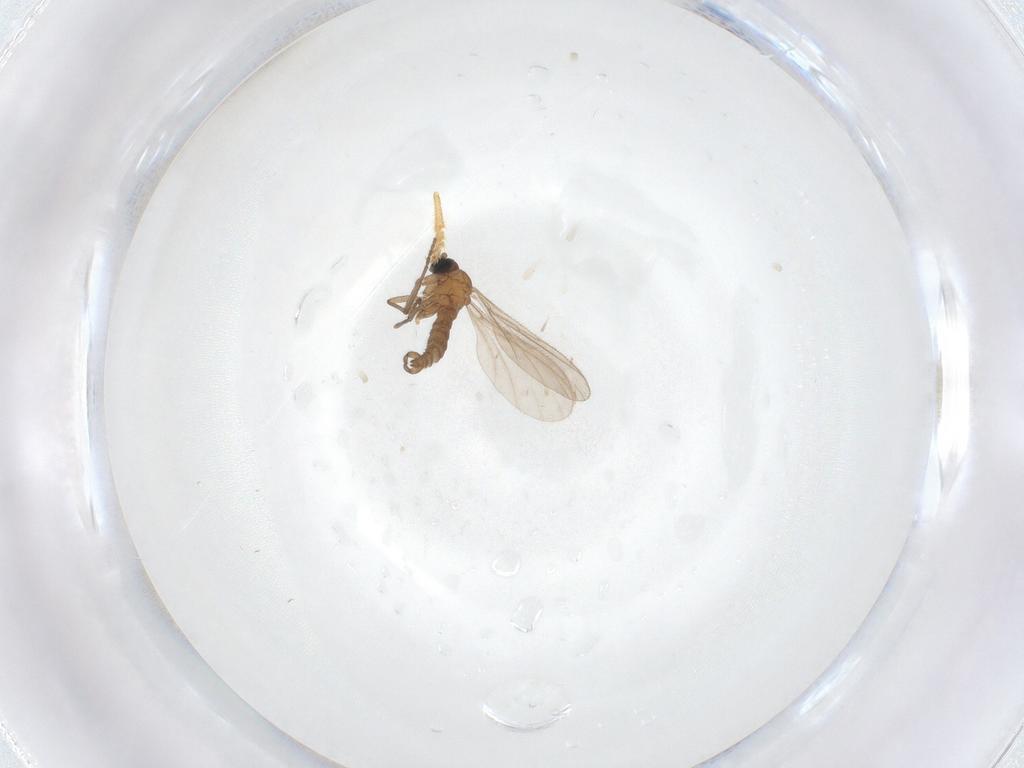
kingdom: Animalia
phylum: Arthropoda
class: Insecta
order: Diptera
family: Sciaridae
